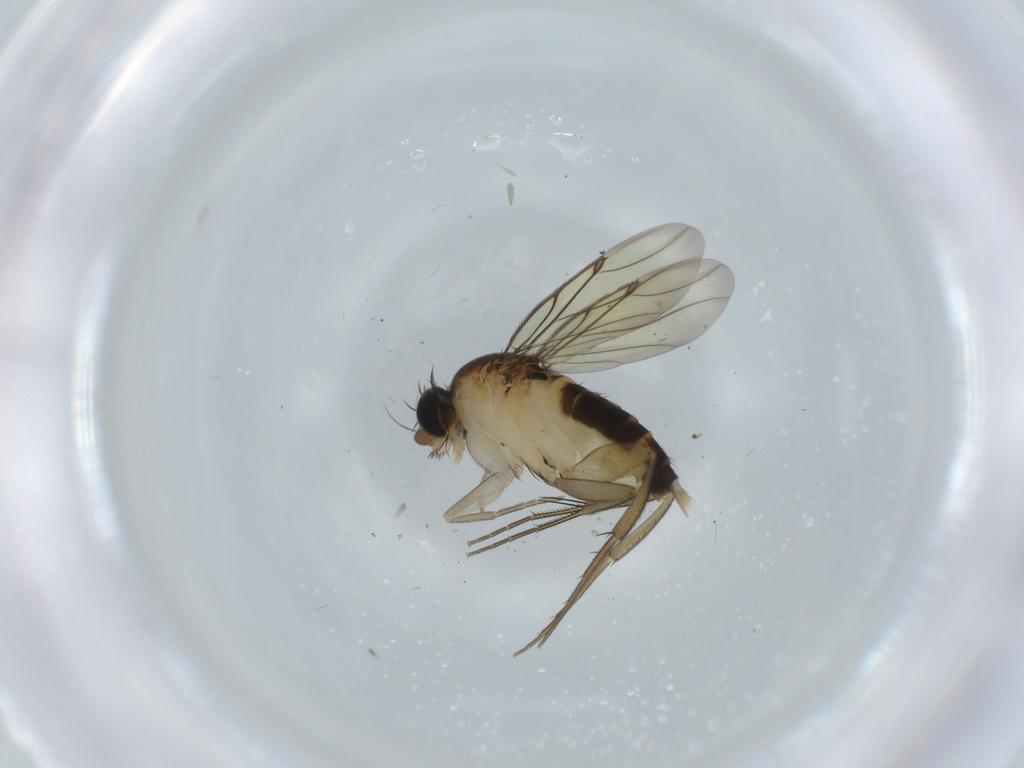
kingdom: Animalia
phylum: Arthropoda
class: Insecta
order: Diptera
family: Phoridae
